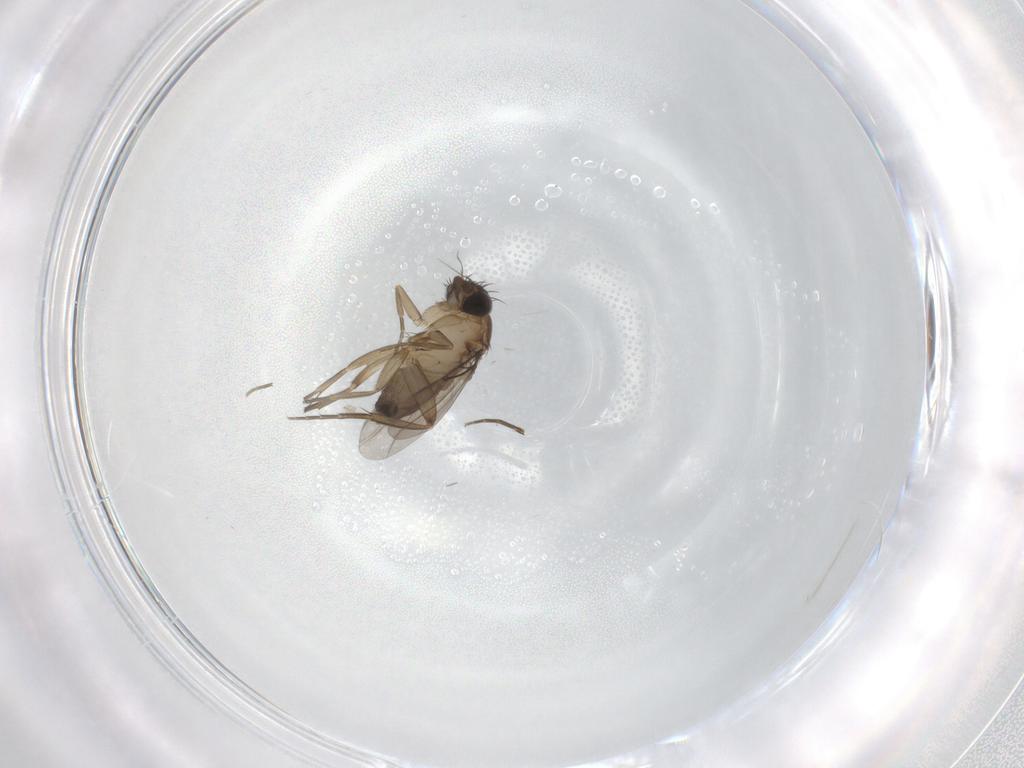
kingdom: Animalia
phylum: Arthropoda
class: Insecta
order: Diptera
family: Phoridae
